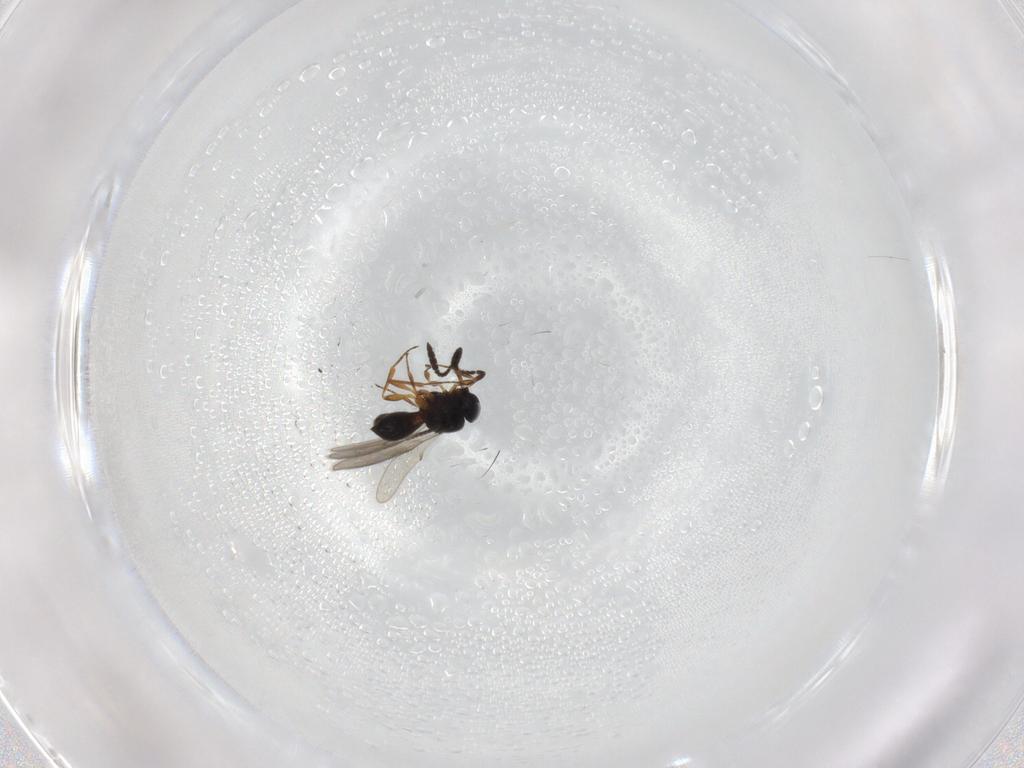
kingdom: Animalia
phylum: Arthropoda
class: Insecta
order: Hymenoptera
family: Scelionidae
